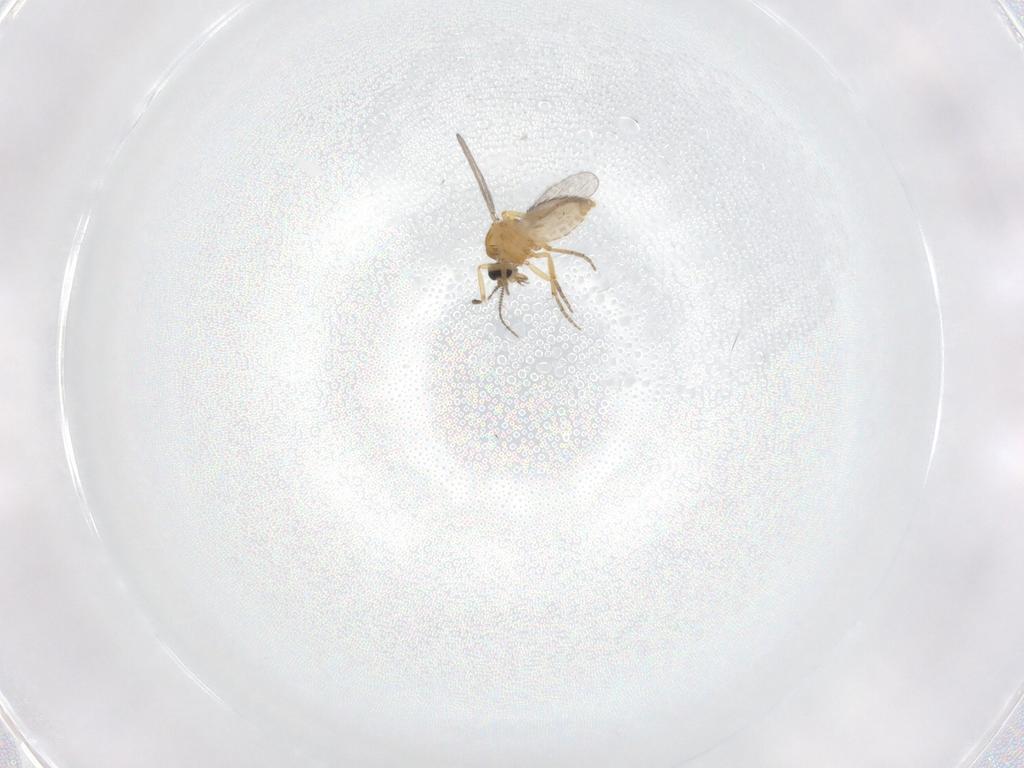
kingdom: Animalia
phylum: Arthropoda
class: Insecta
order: Diptera
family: Ceratopogonidae
